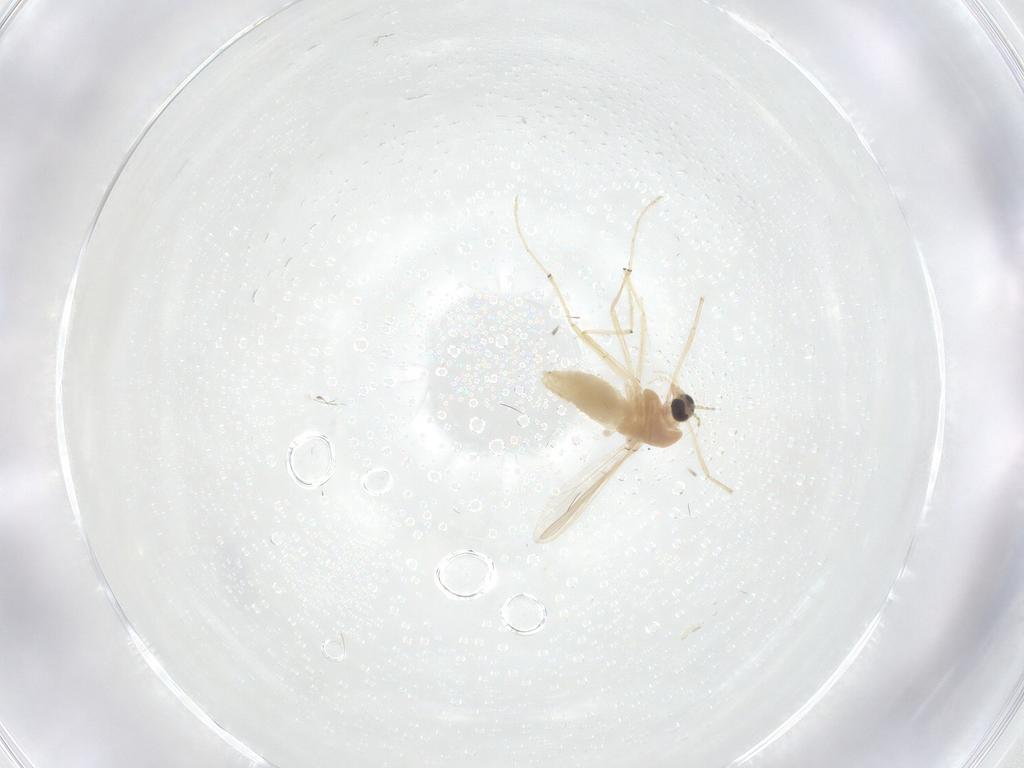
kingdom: Animalia
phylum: Arthropoda
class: Insecta
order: Diptera
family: Chironomidae
